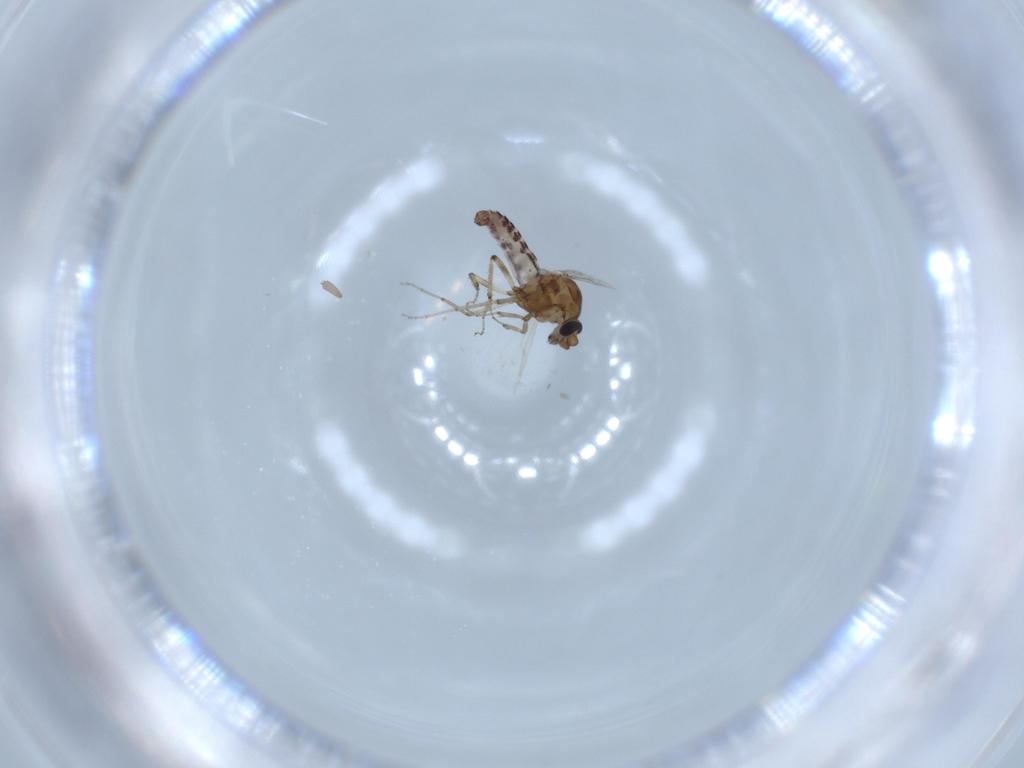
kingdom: Animalia
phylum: Arthropoda
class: Insecta
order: Diptera
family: Ceratopogonidae
